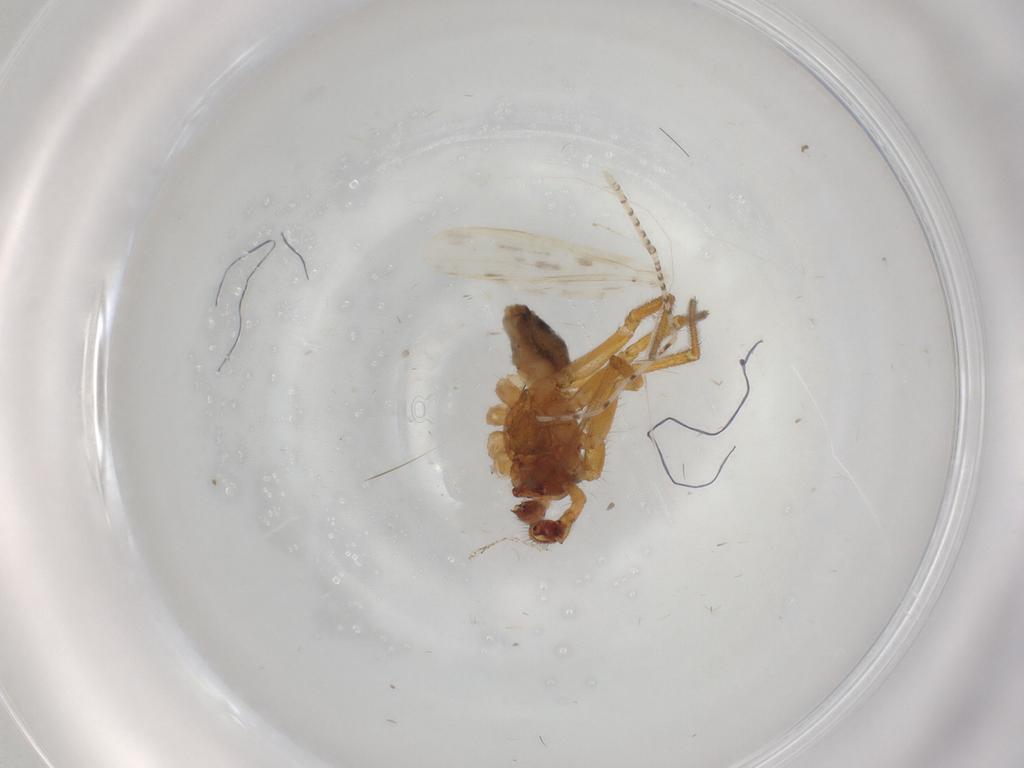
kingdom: Animalia
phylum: Arthropoda
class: Arachnida
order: Araneae
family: Linyphiidae
